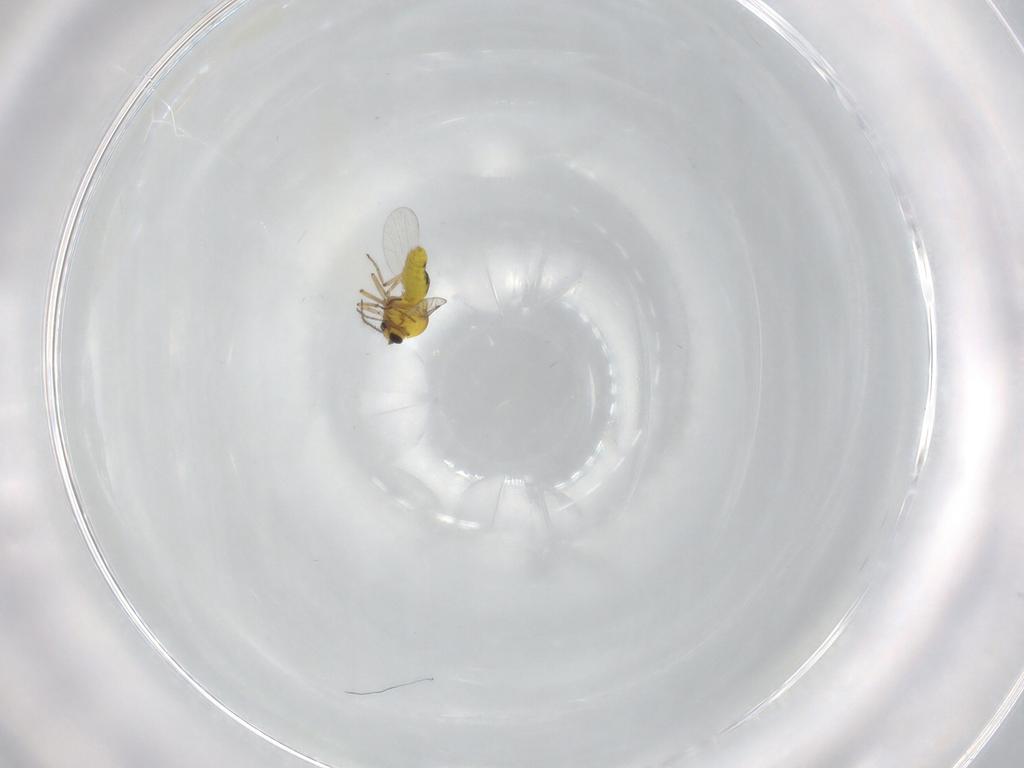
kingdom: Animalia
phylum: Arthropoda
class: Insecta
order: Diptera
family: Ceratopogonidae
